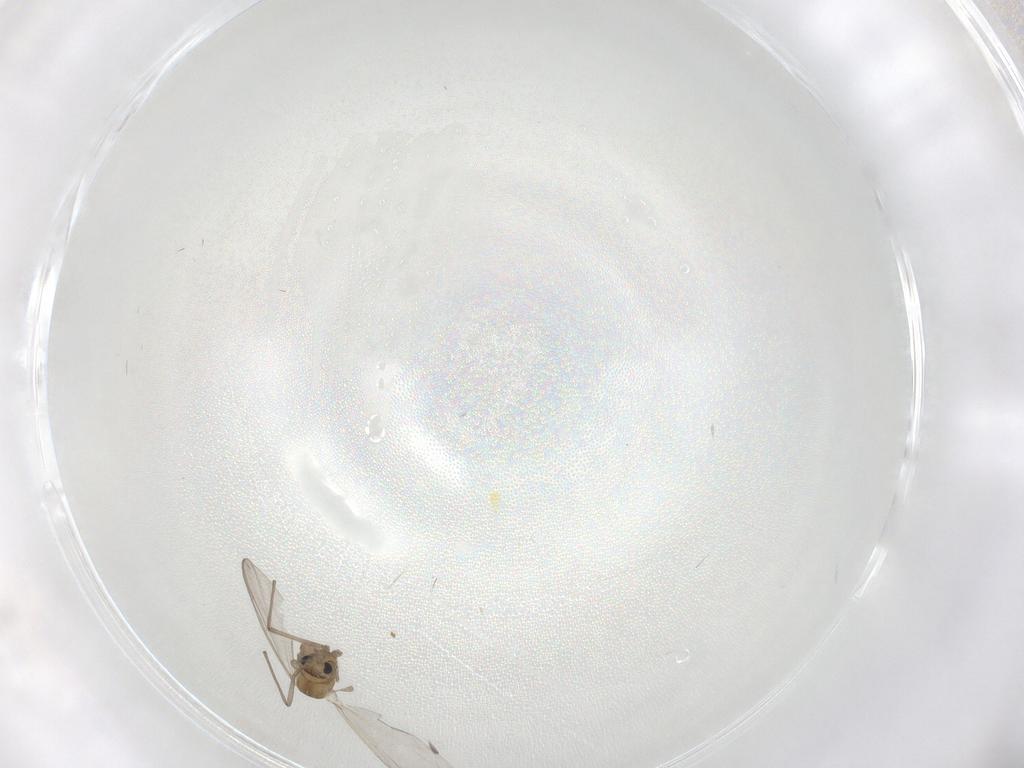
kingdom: Animalia
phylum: Arthropoda
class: Insecta
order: Diptera
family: Chironomidae
